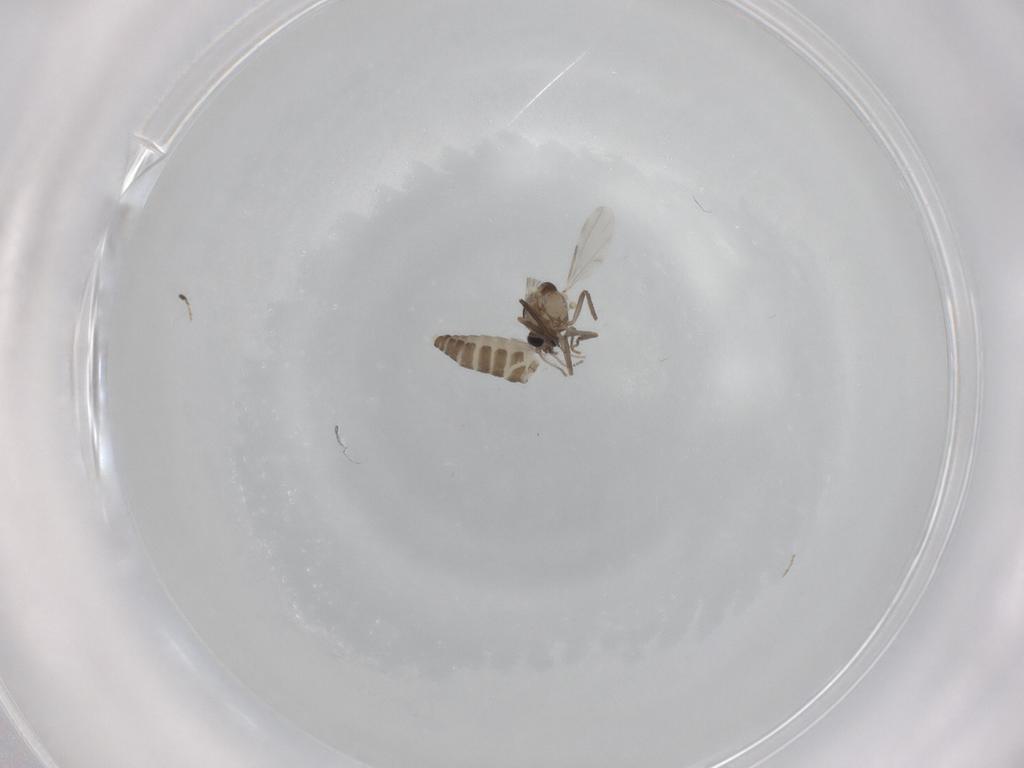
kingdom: Animalia
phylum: Arthropoda
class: Insecta
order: Diptera
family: Ceratopogonidae
